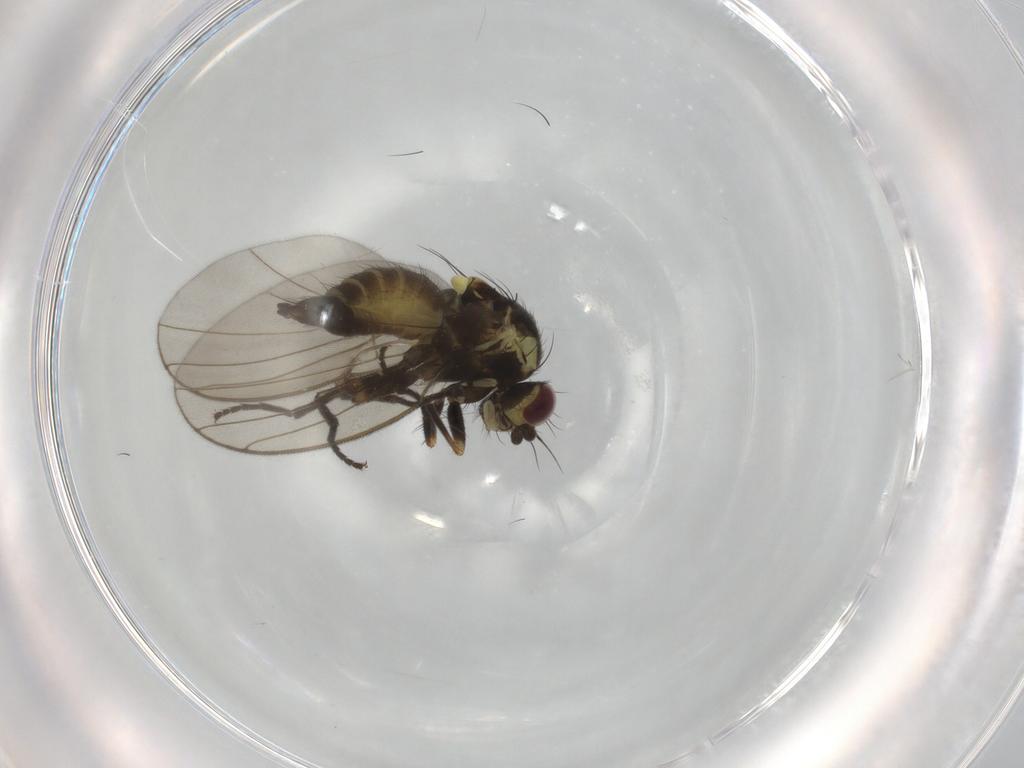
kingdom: Animalia
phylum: Arthropoda
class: Insecta
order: Diptera
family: Agromyzidae
